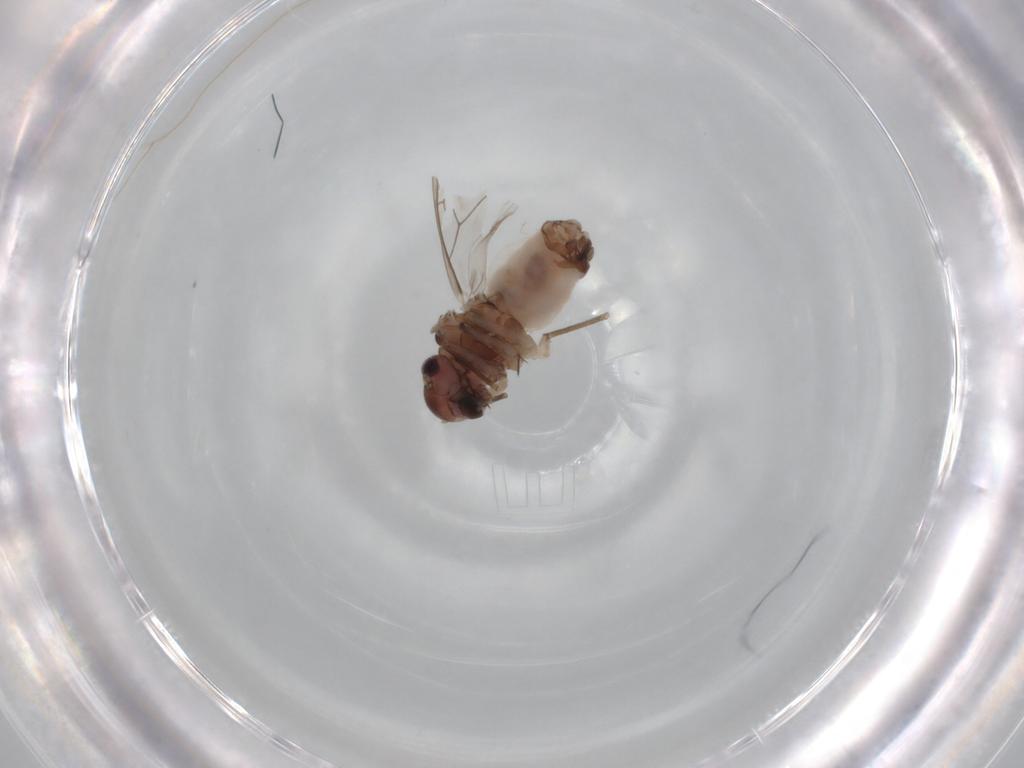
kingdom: Animalia
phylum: Arthropoda
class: Insecta
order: Psocodea
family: Peripsocidae
